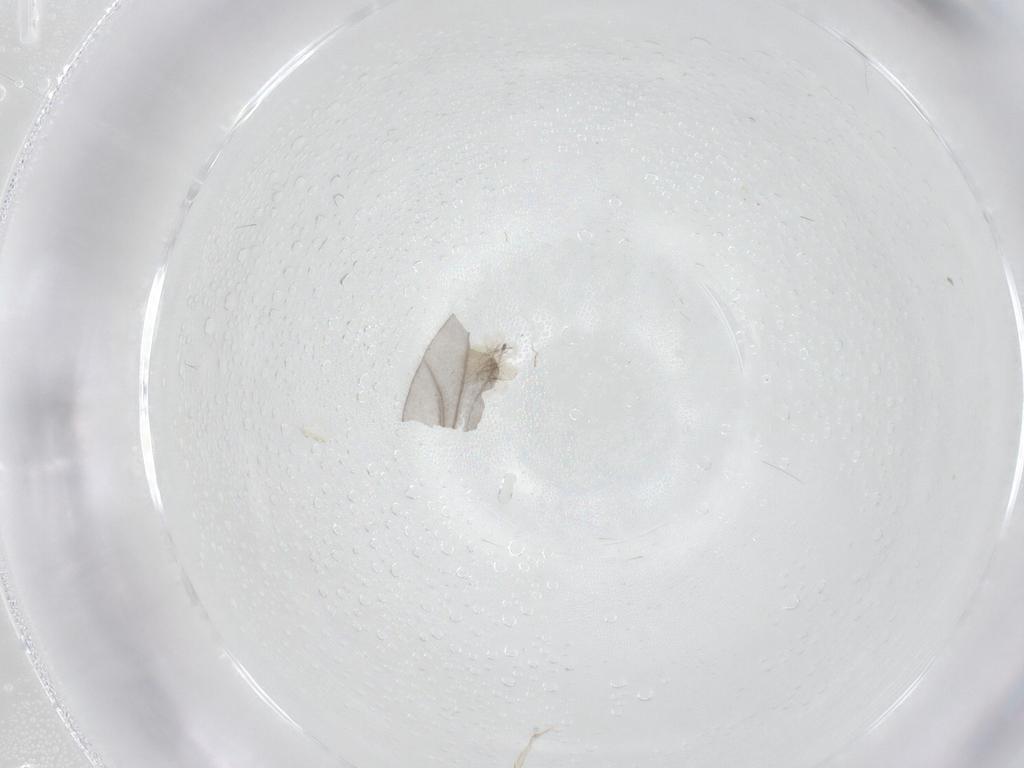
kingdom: Animalia
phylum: Arthropoda
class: Arachnida
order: Trombidiformes
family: Anystidae
